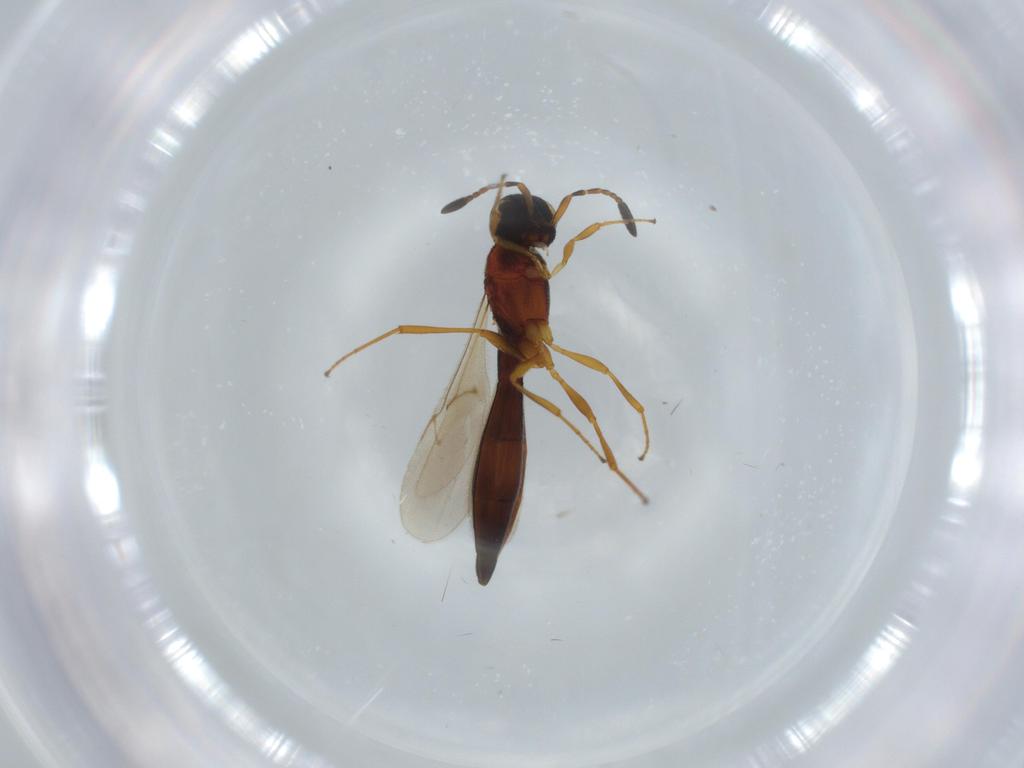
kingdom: Animalia
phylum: Arthropoda
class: Insecta
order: Hymenoptera
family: Scelionidae
